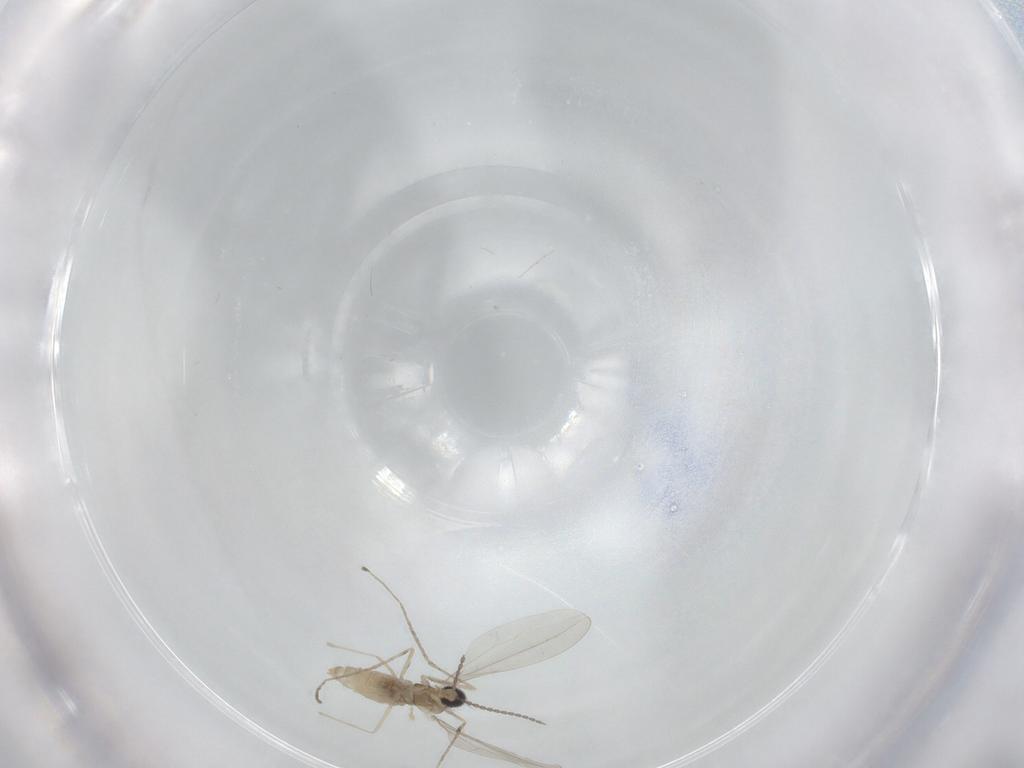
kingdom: Animalia
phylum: Arthropoda
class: Insecta
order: Diptera
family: Cecidomyiidae
